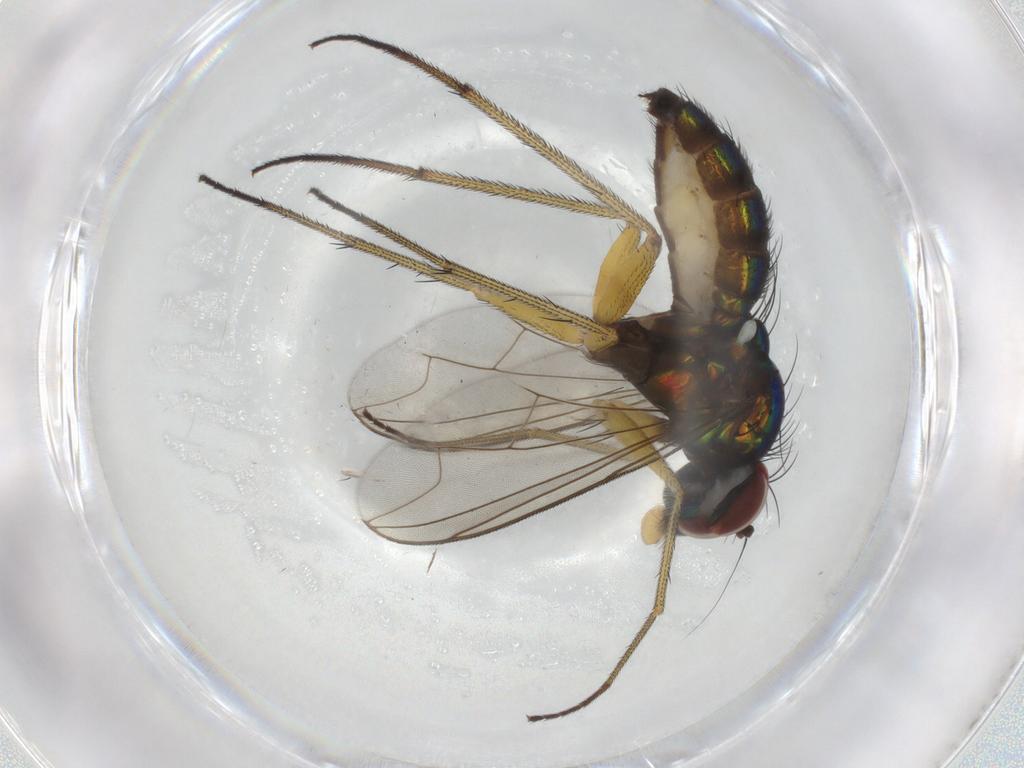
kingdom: Animalia
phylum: Arthropoda
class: Insecta
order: Diptera
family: Dolichopodidae
